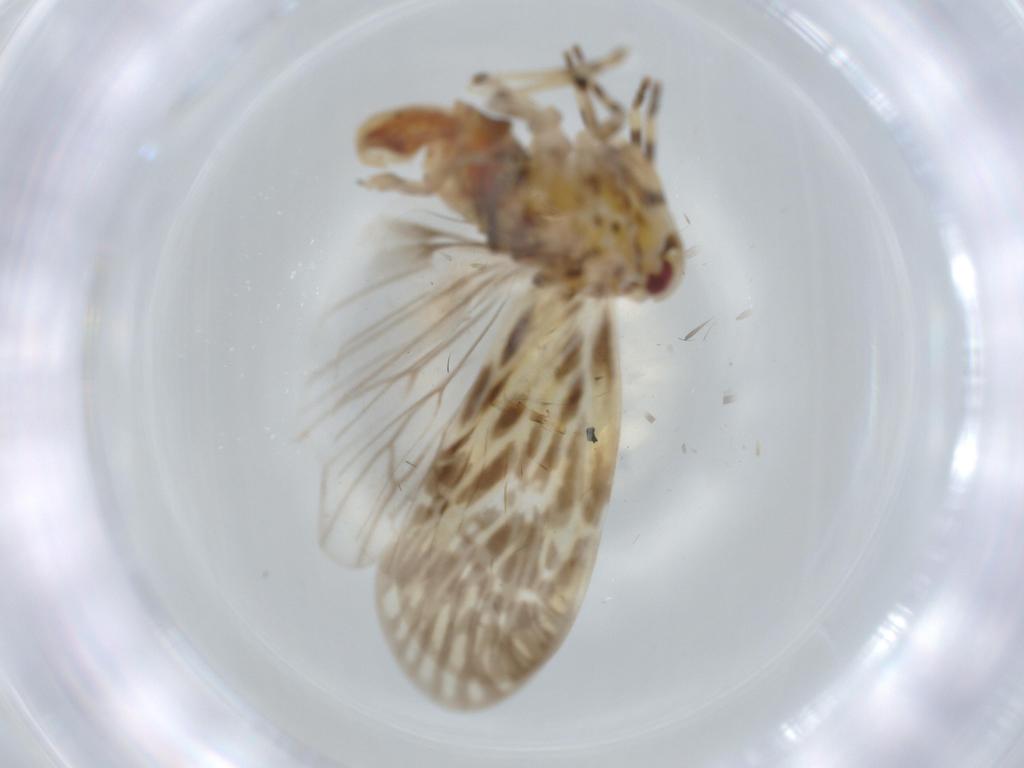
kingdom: Animalia
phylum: Arthropoda
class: Insecta
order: Hemiptera
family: Derbidae
